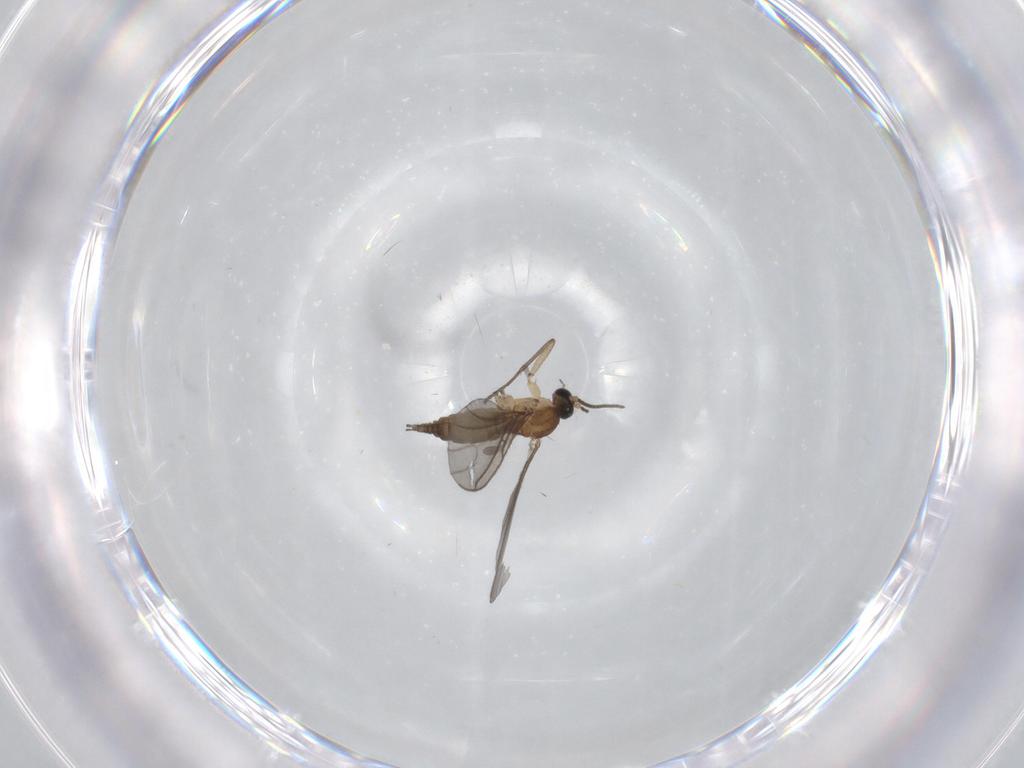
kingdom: Animalia
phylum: Arthropoda
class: Insecta
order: Diptera
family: Sciaridae
